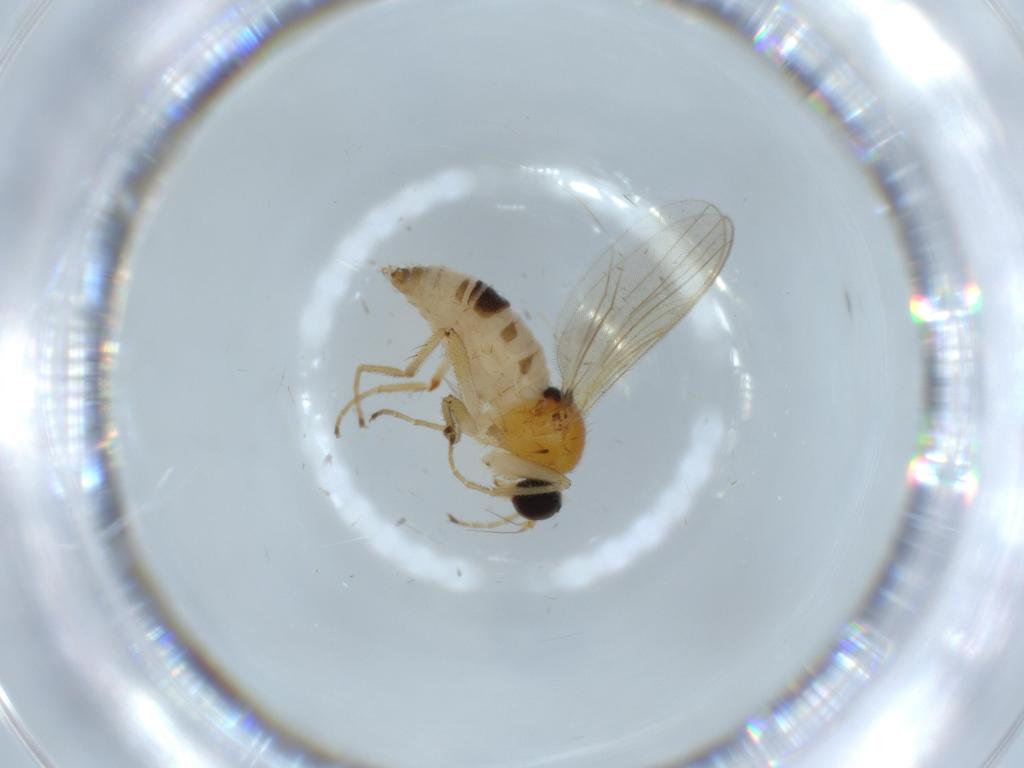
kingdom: Animalia
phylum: Arthropoda
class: Insecta
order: Diptera
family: Hybotidae
